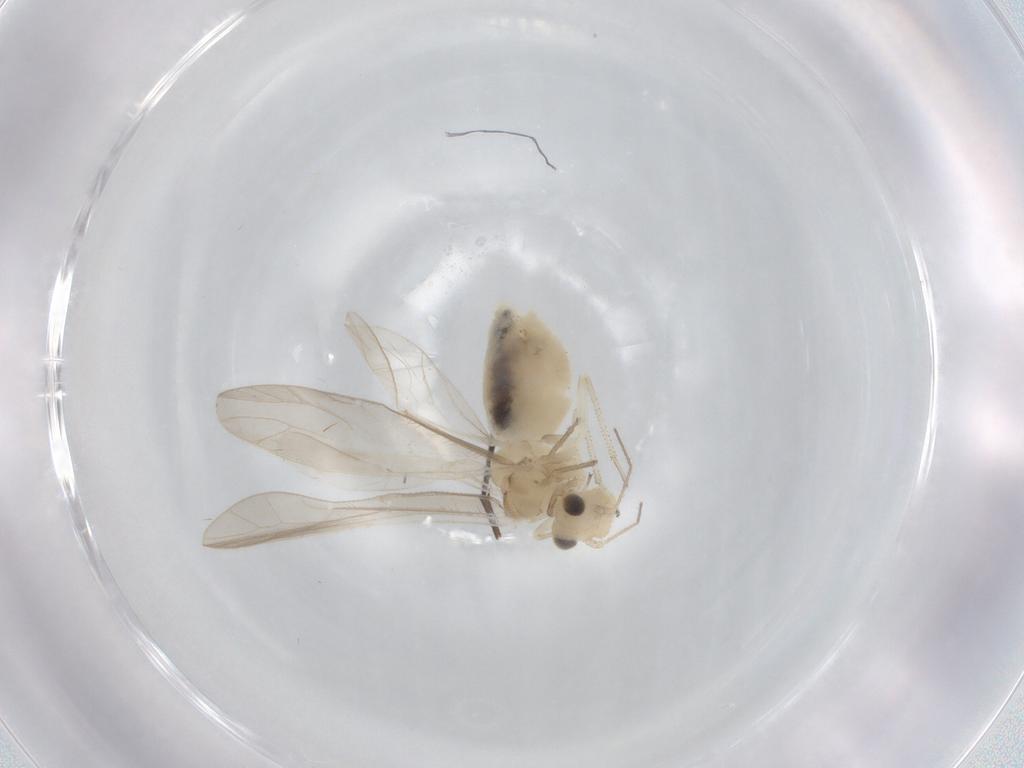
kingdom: Animalia
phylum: Arthropoda
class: Insecta
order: Psocodea
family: Stenopsocidae
